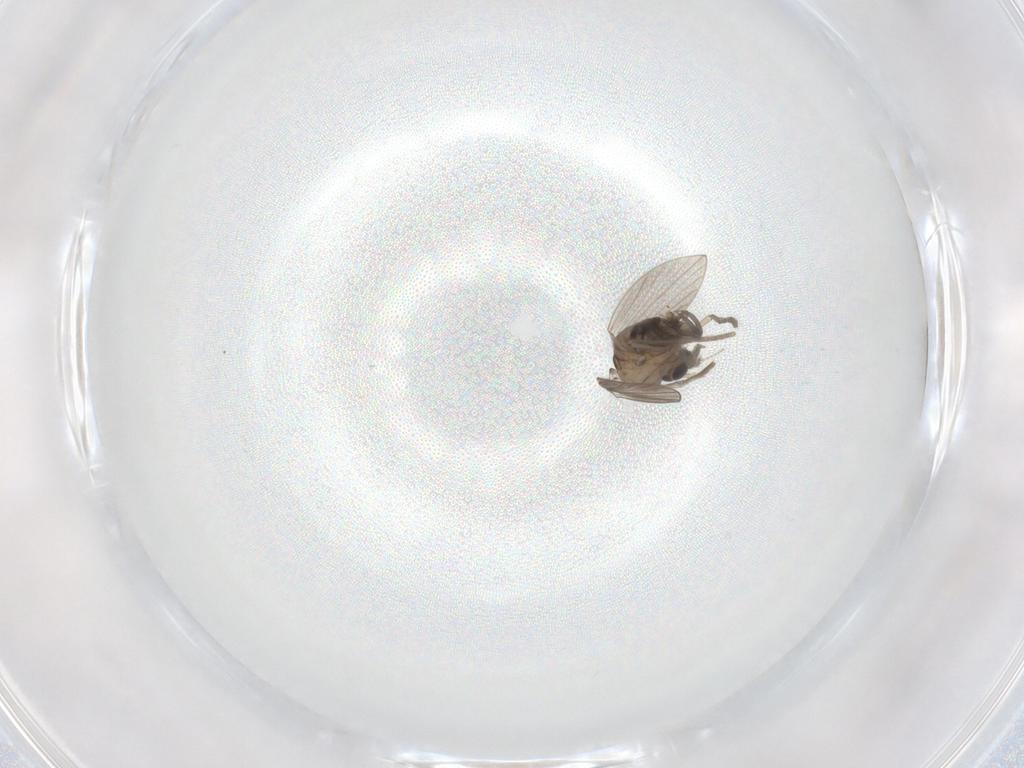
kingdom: Animalia
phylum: Arthropoda
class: Insecta
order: Diptera
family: Psychodidae
